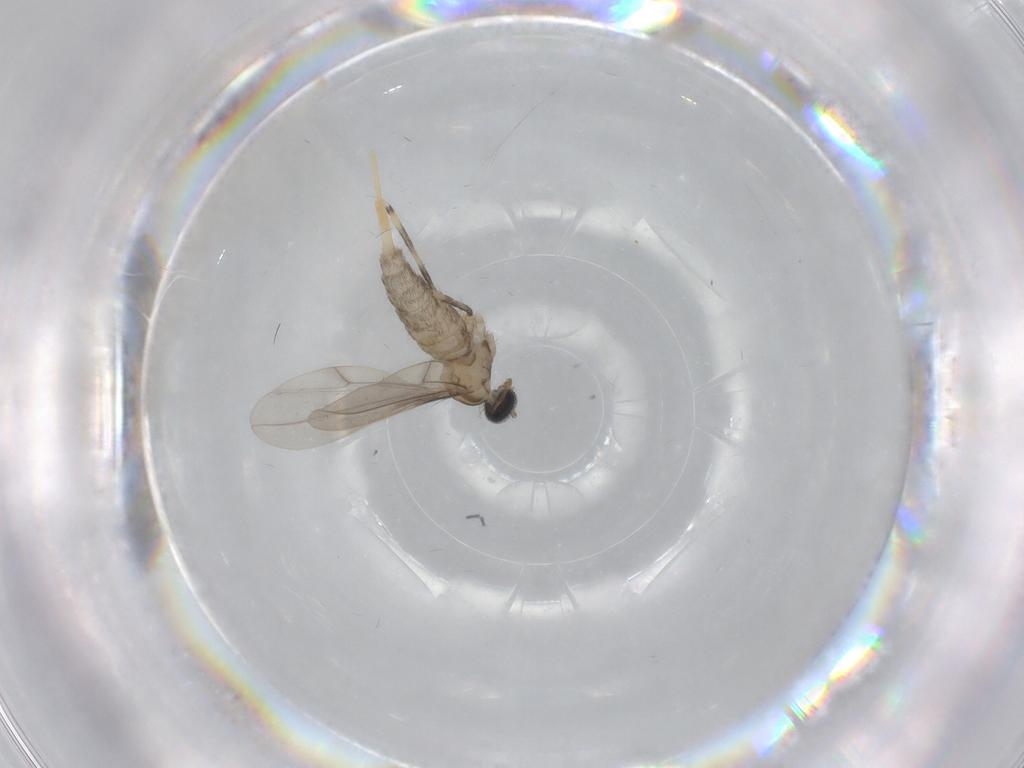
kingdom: Animalia
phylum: Arthropoda
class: Insecta
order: Diptera
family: Cecidomyiidae
